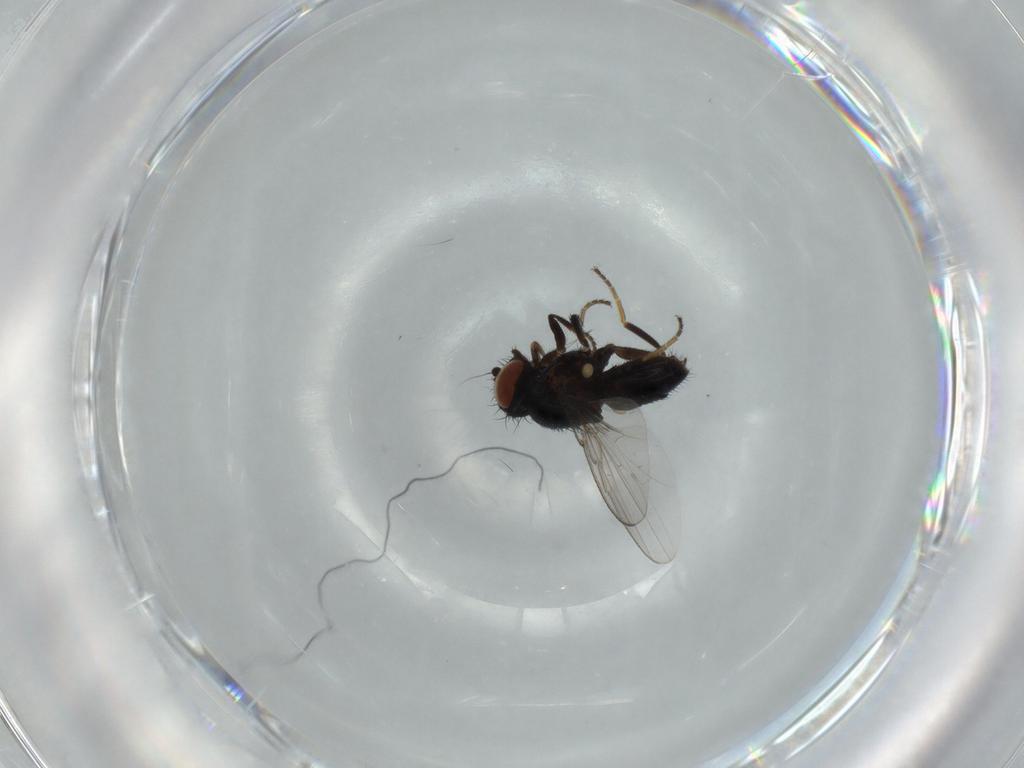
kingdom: Animalia
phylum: Arthropoda
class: Insecta
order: Diptera
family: Milichiidae
